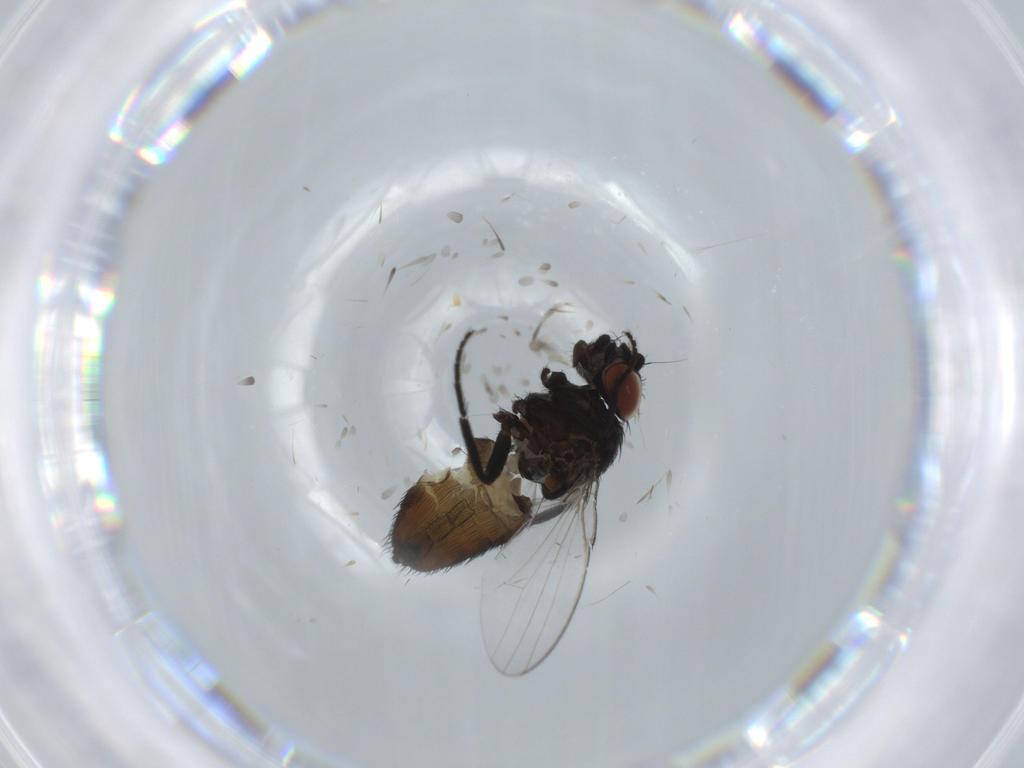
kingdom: Animalia
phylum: Arthropoda
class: Insecta
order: Diptera
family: Milichiidae
